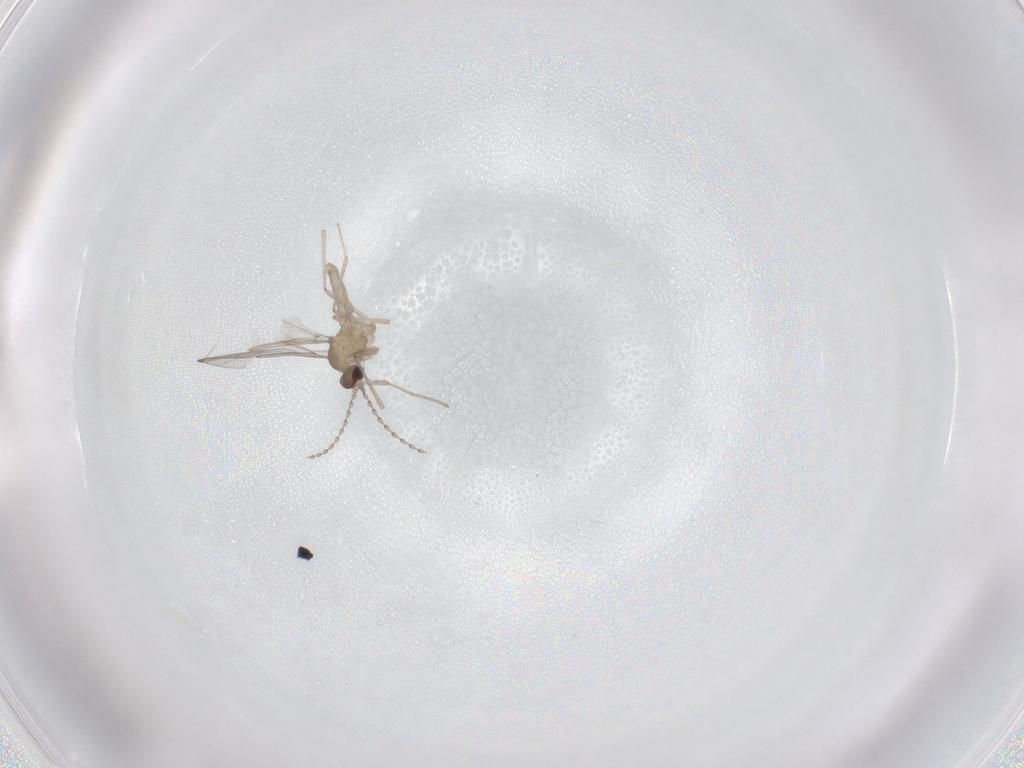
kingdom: Animalia
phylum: Arthropoda
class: Insecta
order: Diptera
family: Cecidomyiidae
